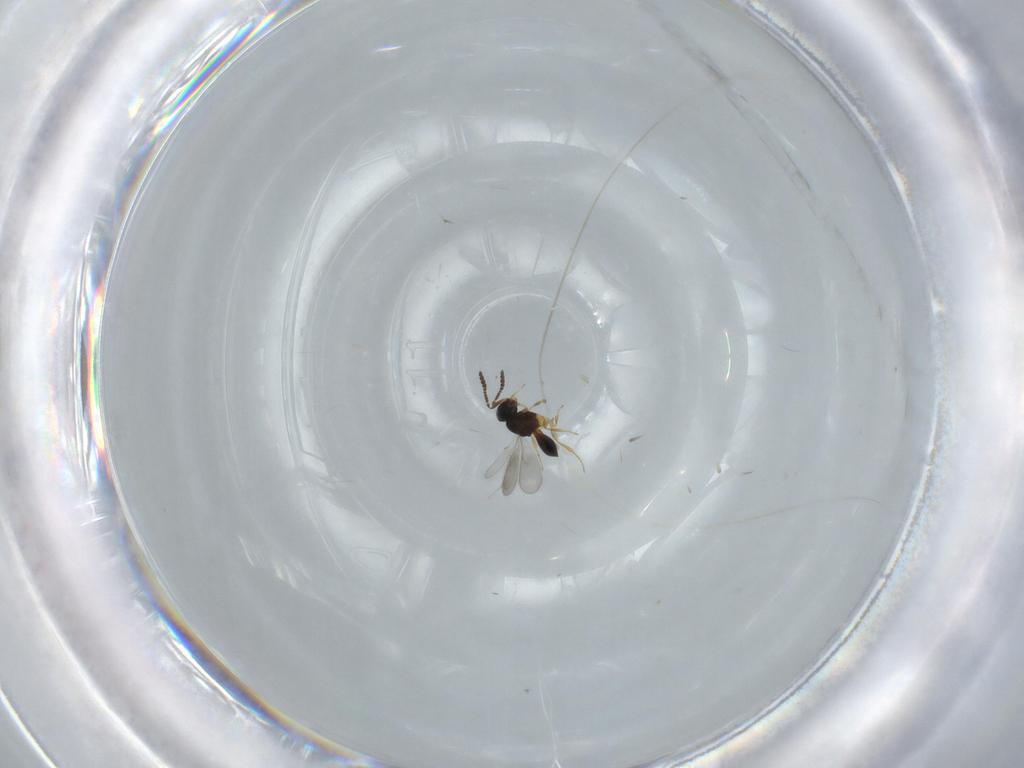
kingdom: Animalia
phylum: Arthropoda
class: Insecta
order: Hymenoptera
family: Scelionidae
